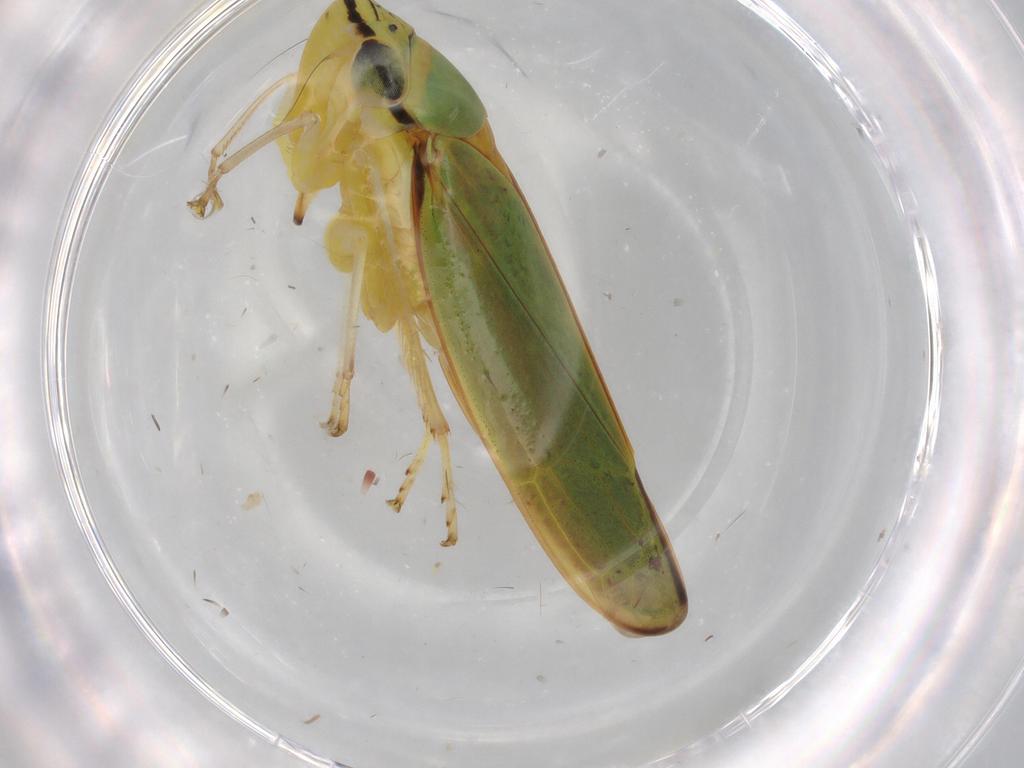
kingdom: Animalia
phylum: Arthropoda
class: Insecta
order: Hemiptera
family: Cicadellidae
